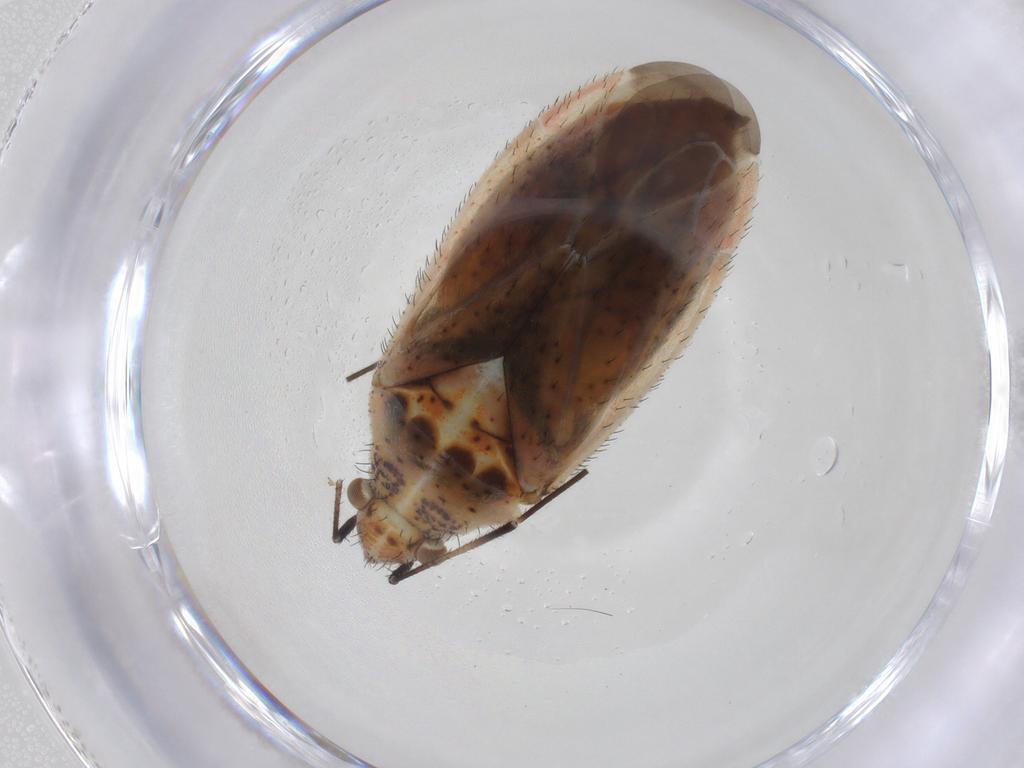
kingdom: Animalia
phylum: Arthropoda
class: Insecta
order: Hemiptera
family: Miridae
